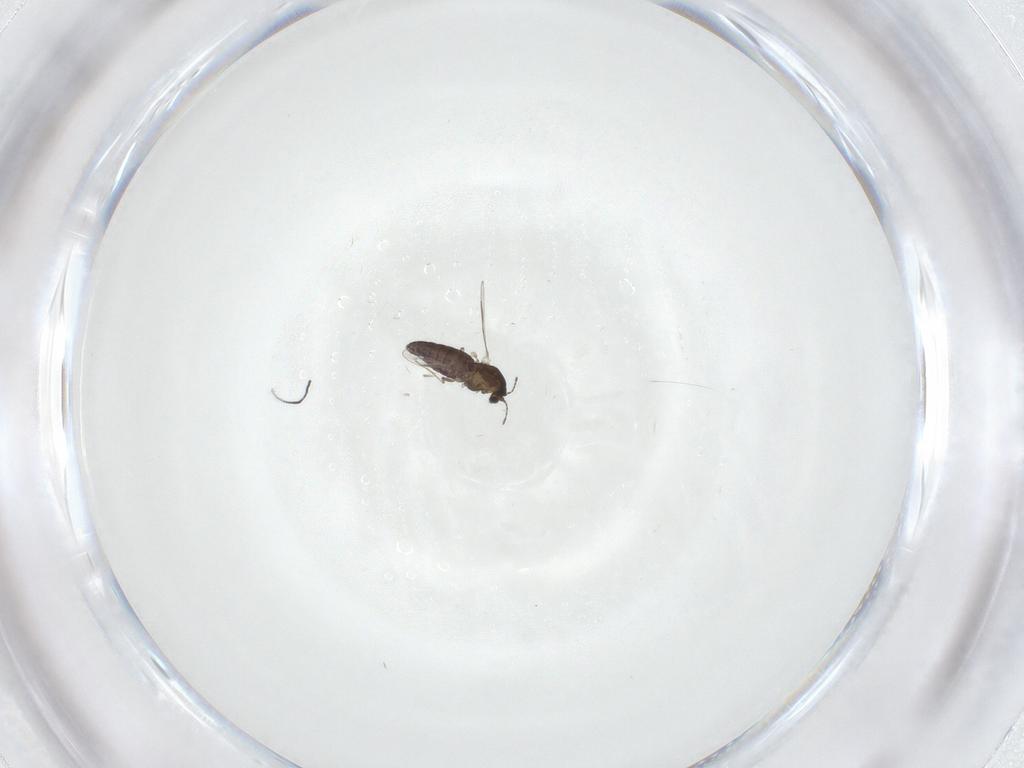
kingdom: Animalia
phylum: Arthropoda
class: Insecta
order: Diptera
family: Chironomidae
